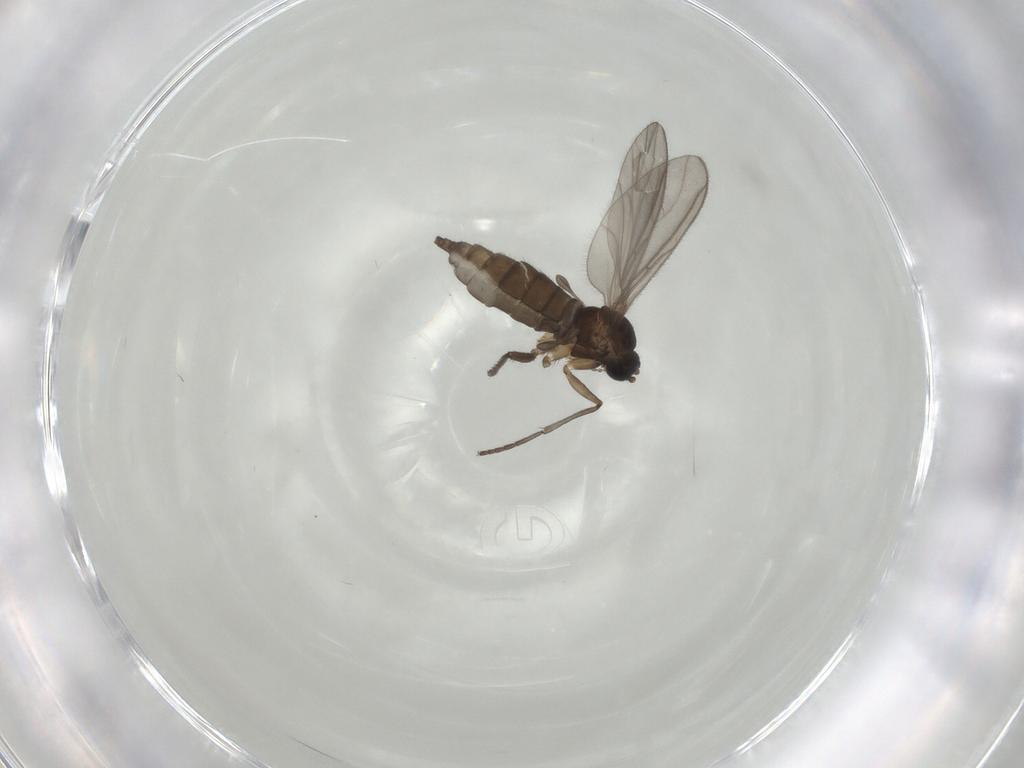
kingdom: Animalia
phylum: Arthropoda
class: Insecta
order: Diptera
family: Sciaridae
